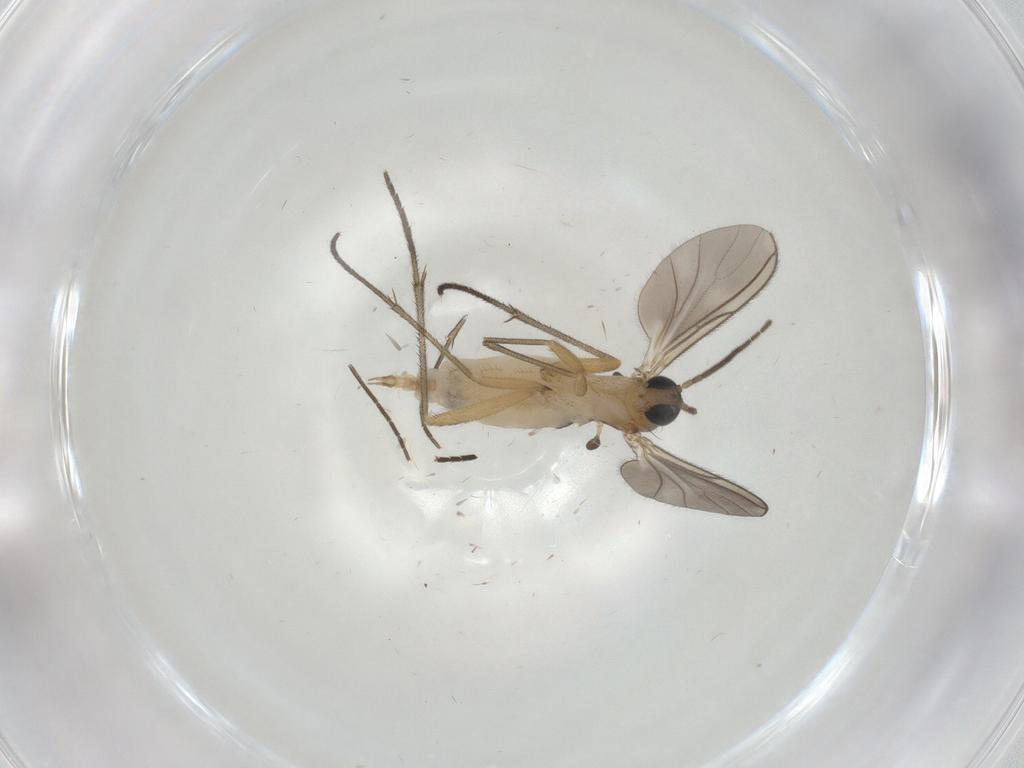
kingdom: Animalia
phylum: Arthropoda
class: Insecta
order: Diptera
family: Sciaridae
